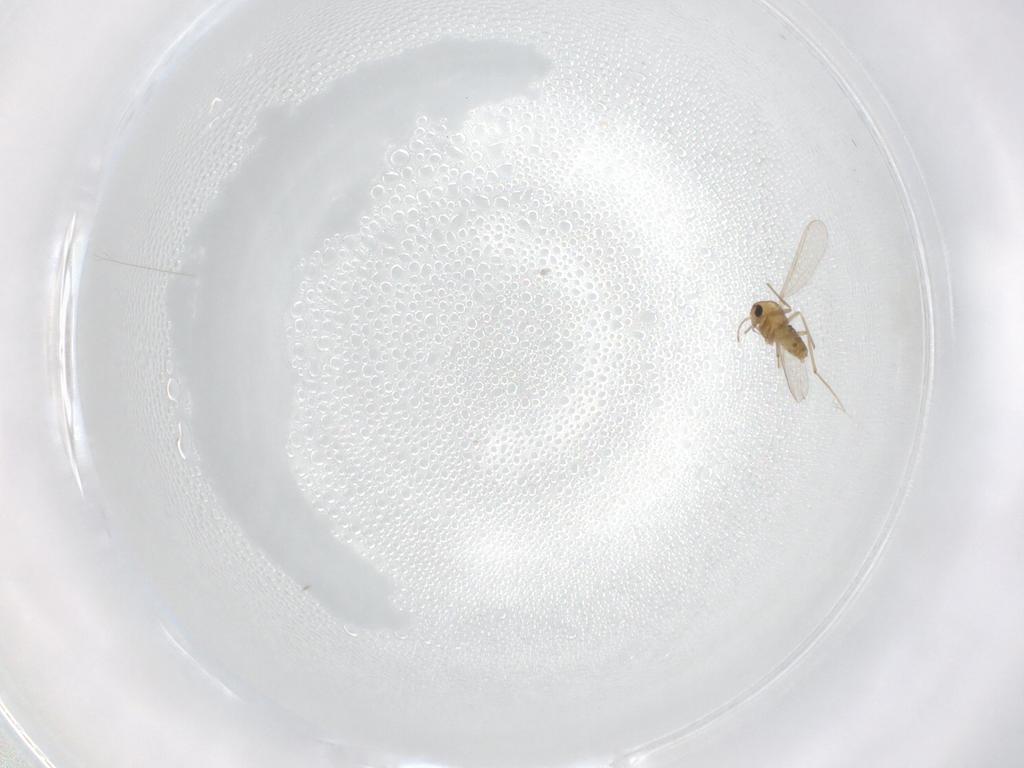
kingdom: Animalia
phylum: Arthropoda
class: Insecta
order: Diptera
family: Chironomidae
